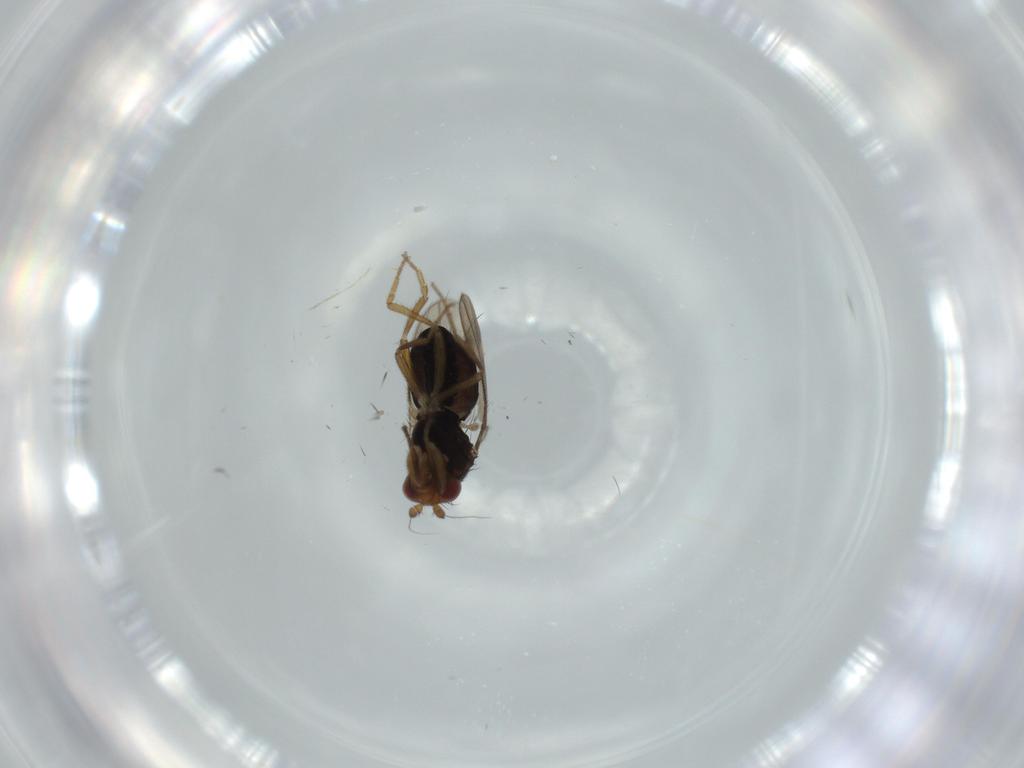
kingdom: Animalia
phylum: Arthropoda
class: Insecta
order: Diptera
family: Sphaeroceridae
